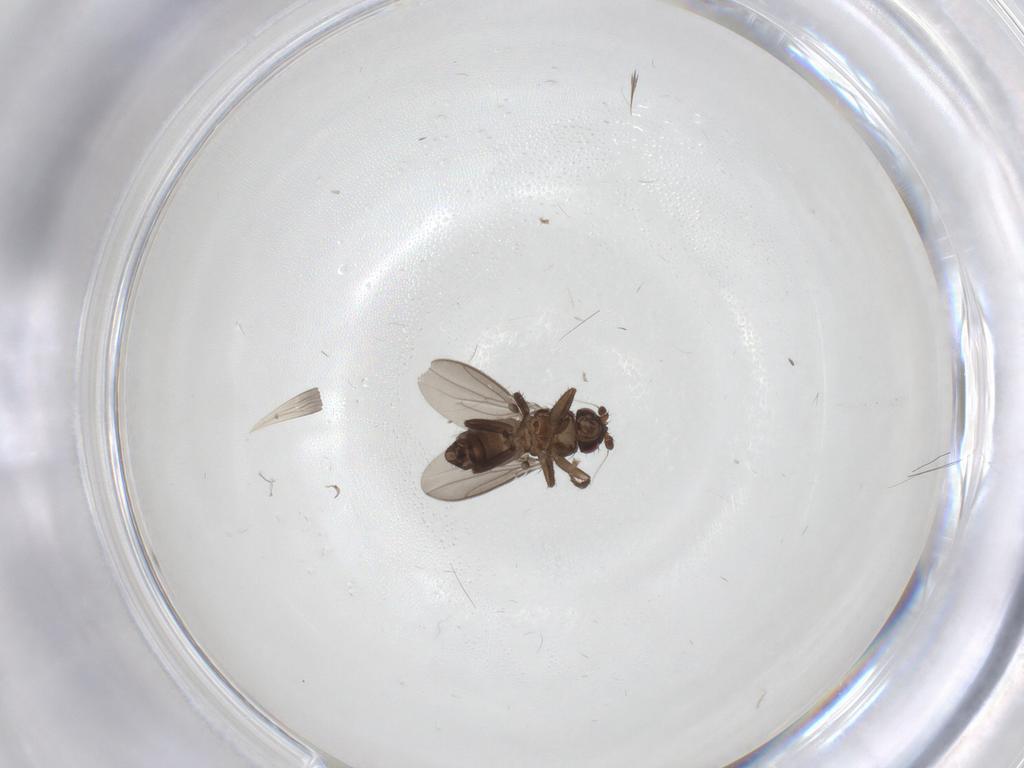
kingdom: Animalia
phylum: Arthropoda
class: Insecta
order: Diptera
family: Sphaeroceridae
